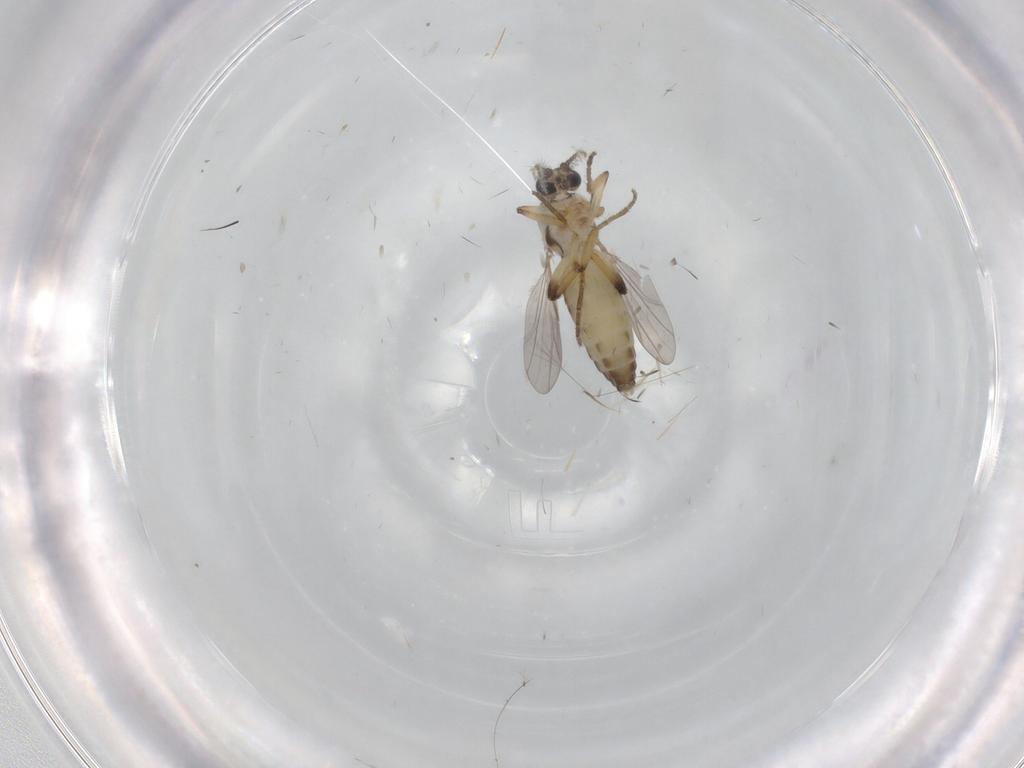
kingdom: Animalia
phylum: Arthropoda
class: Insecta
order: Diptera
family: Ceratopogonidae
